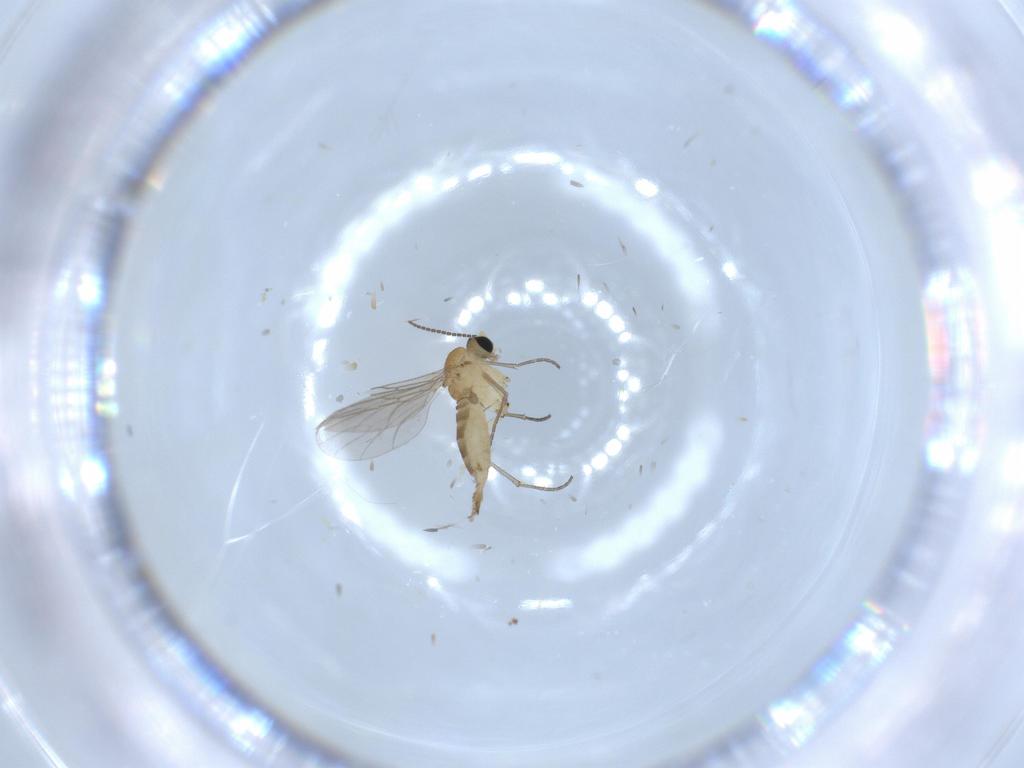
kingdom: Animalia
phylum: Arthropoda
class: Insecta
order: Diptera
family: Sciaridae
